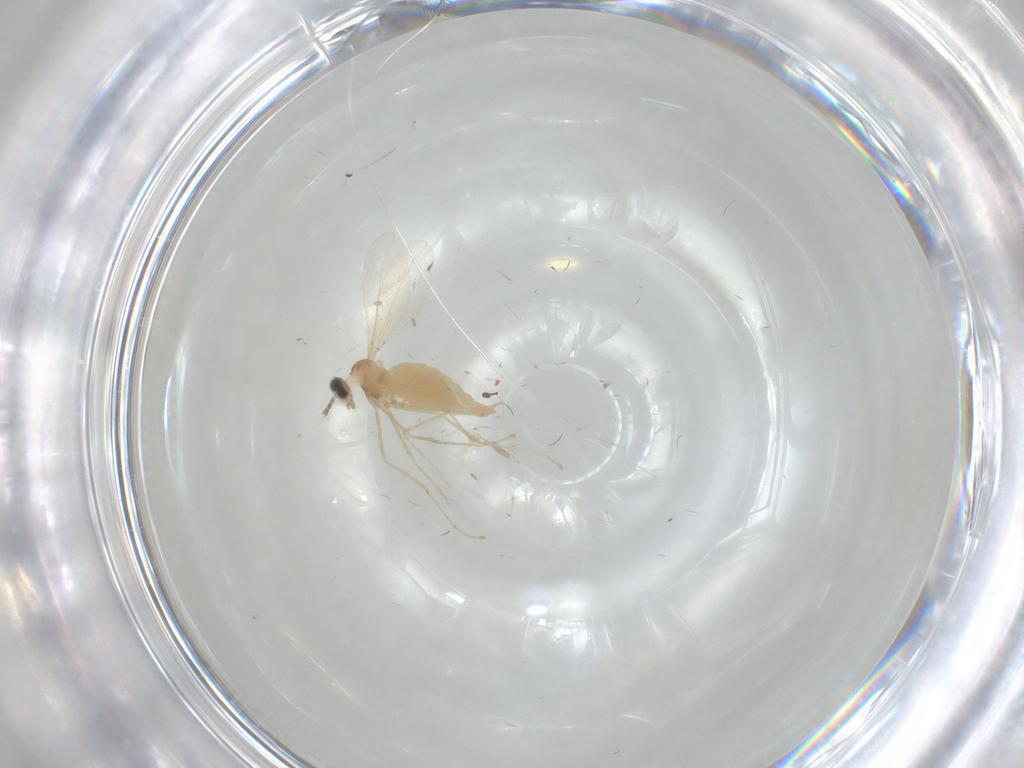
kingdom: Animalia
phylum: Arthropoda
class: Insecta
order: Diptera
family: Cecidomyiidae
